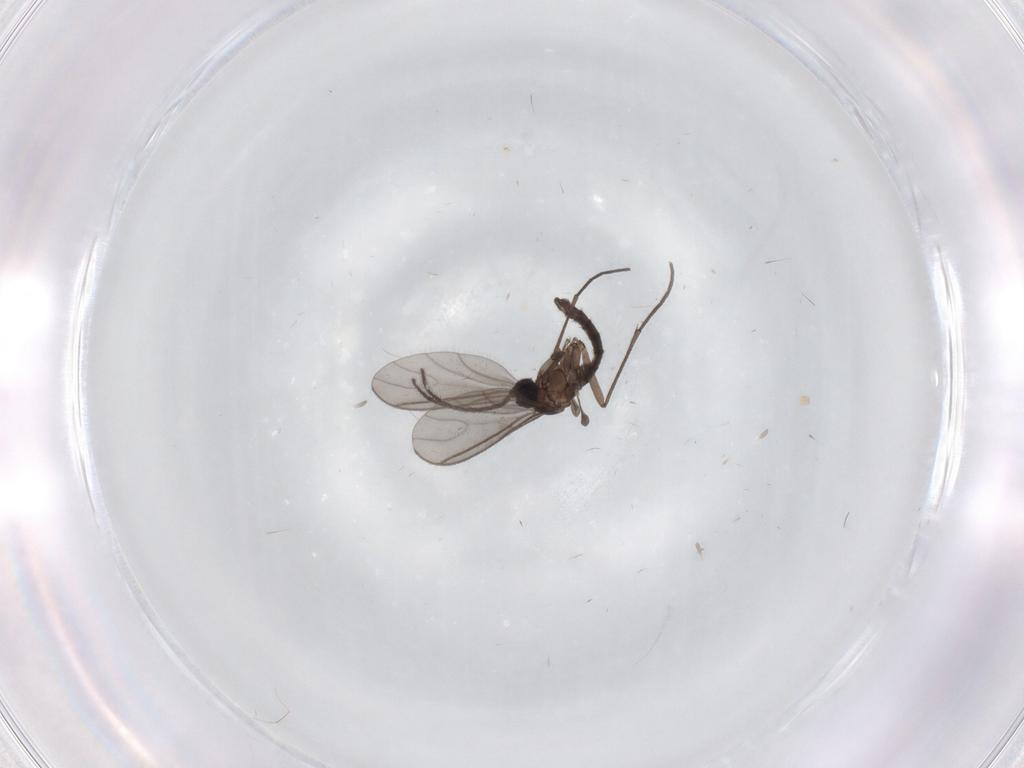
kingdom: Animalia
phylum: Arthropoda
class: Insecta
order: Diptera
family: Sciaridae
